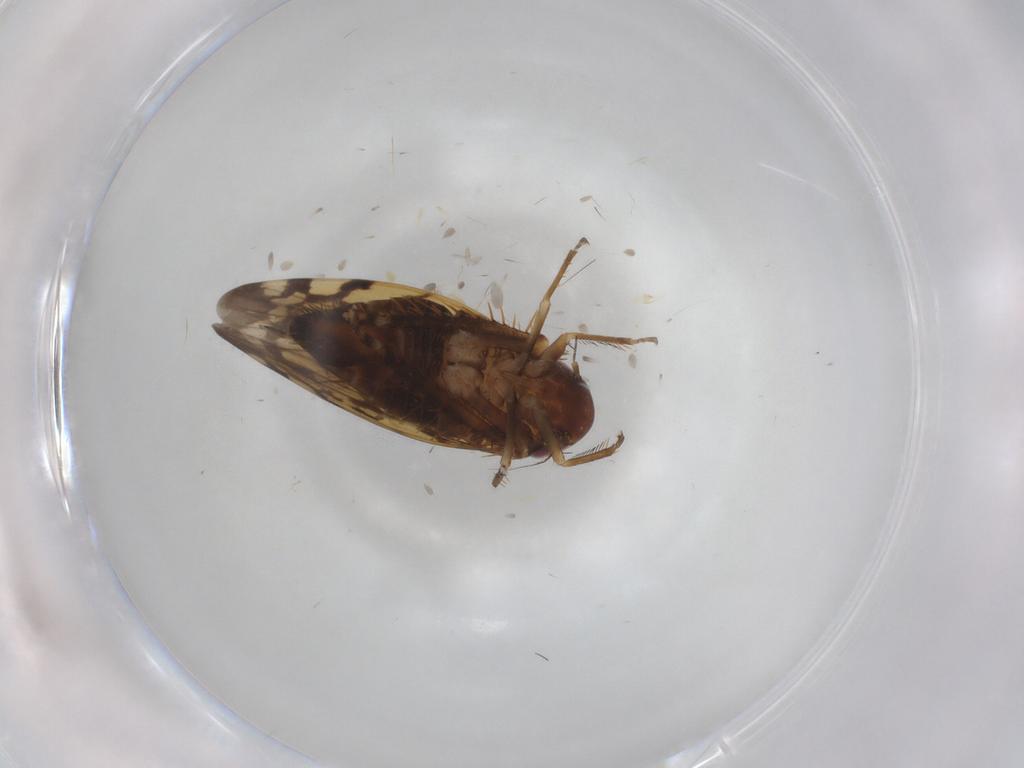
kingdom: Animalia
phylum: Arthropoda
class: Insecta
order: Hemiptera
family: Cicadellidae
